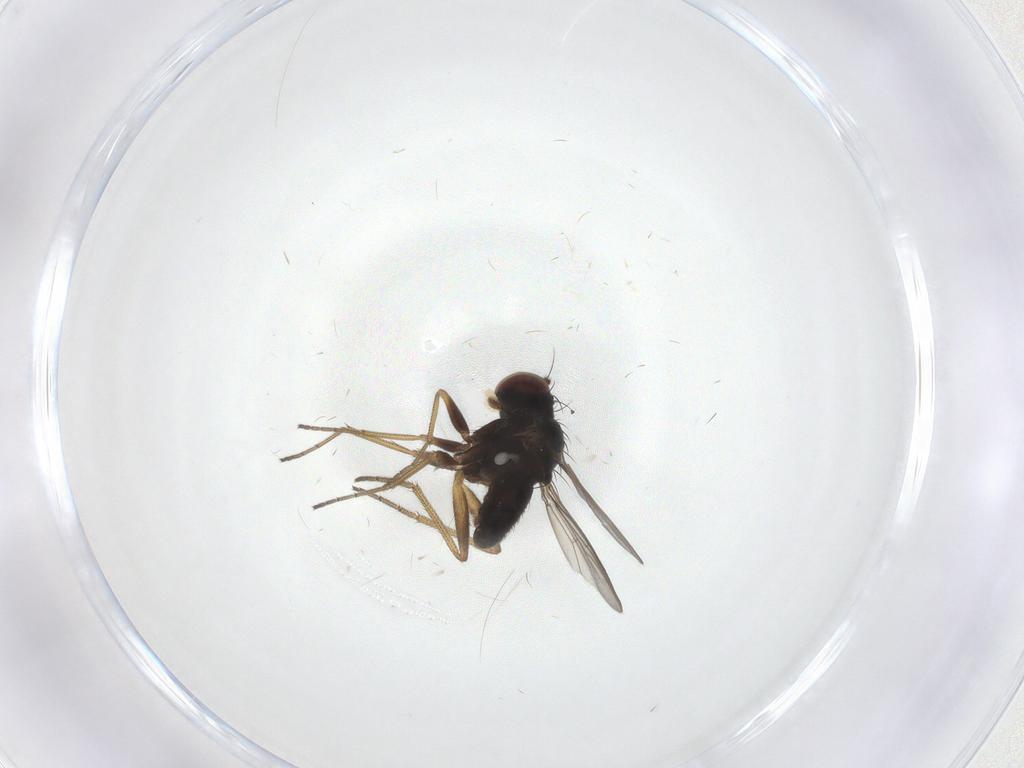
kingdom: Animalia
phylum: Arthropoda
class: Insecta
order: Diptera
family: Dolichopodidae
